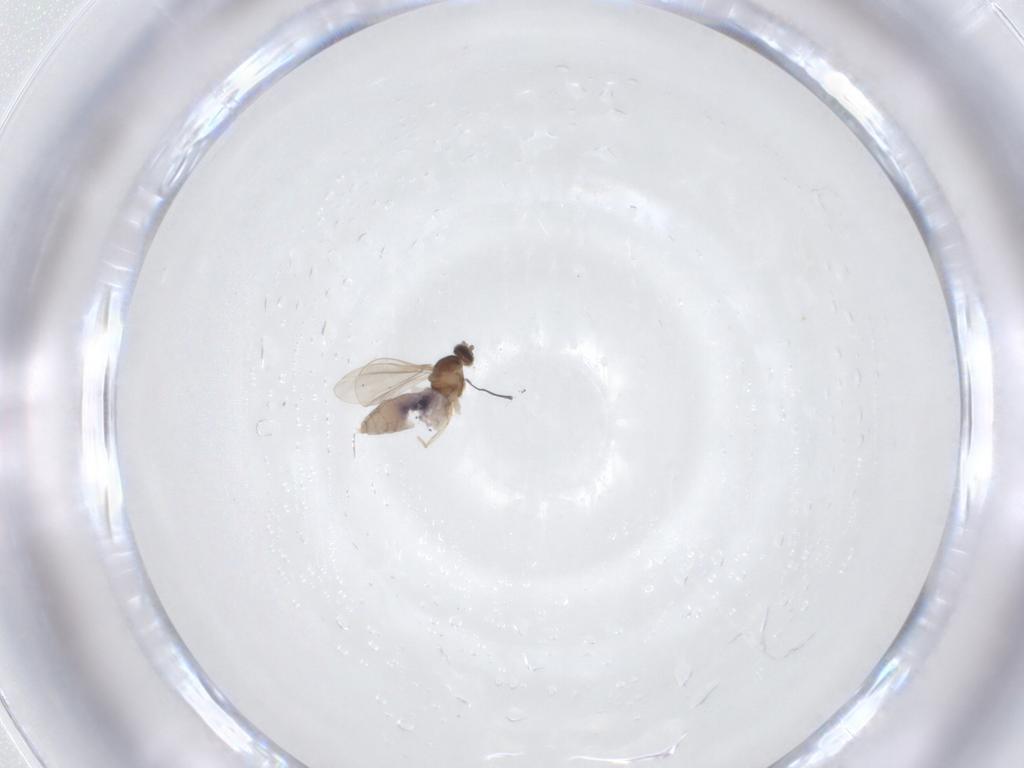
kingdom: Animalia
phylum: Arthropoda
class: Insecta
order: Diptera
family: Cecidomyiidae
